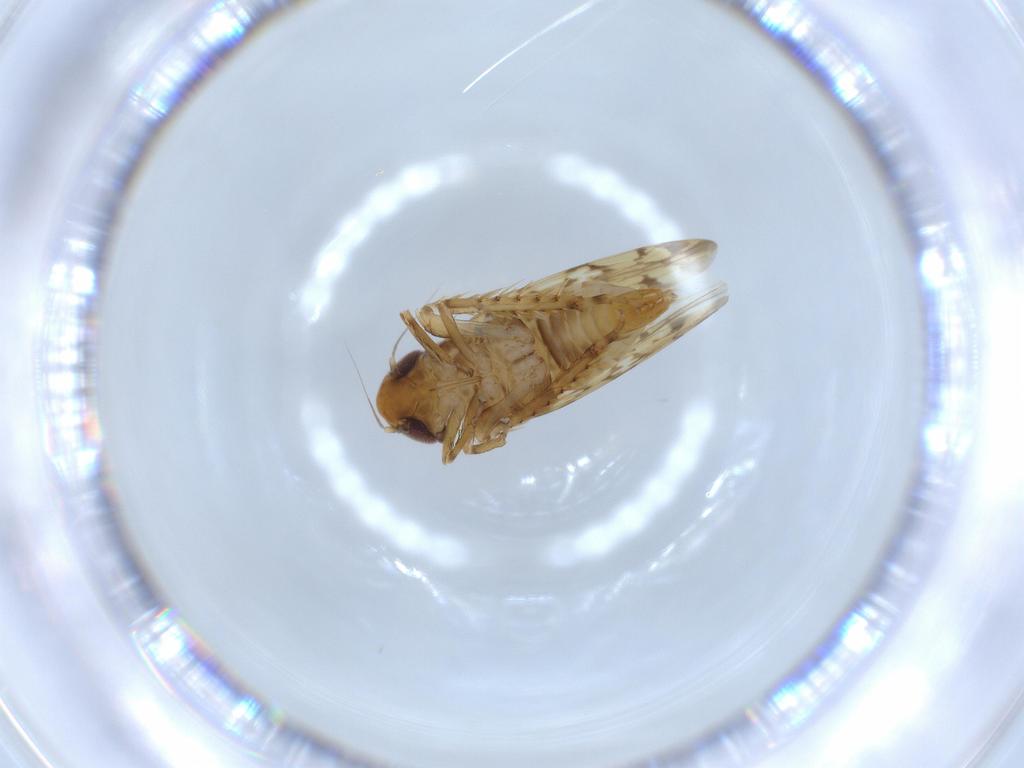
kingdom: Animalia
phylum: Arthropoda
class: Insecta
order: Hemiptera
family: Cicadellidae
